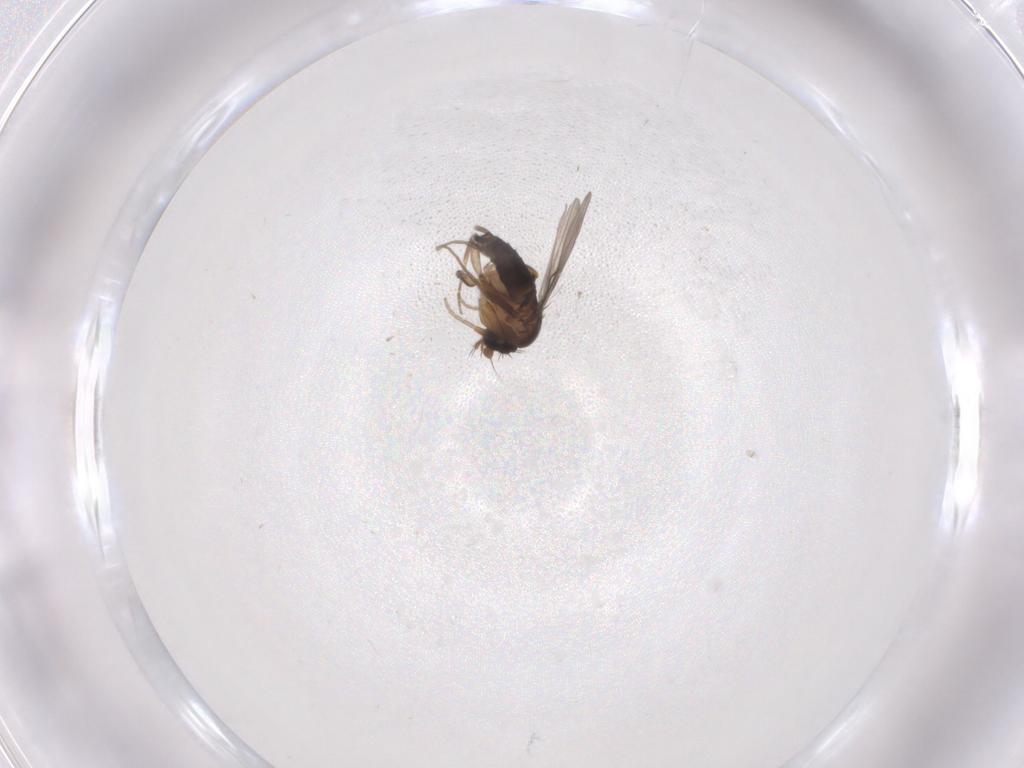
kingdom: Animalia
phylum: Arthropoda
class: Insecta
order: Diptera
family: Phoridae
